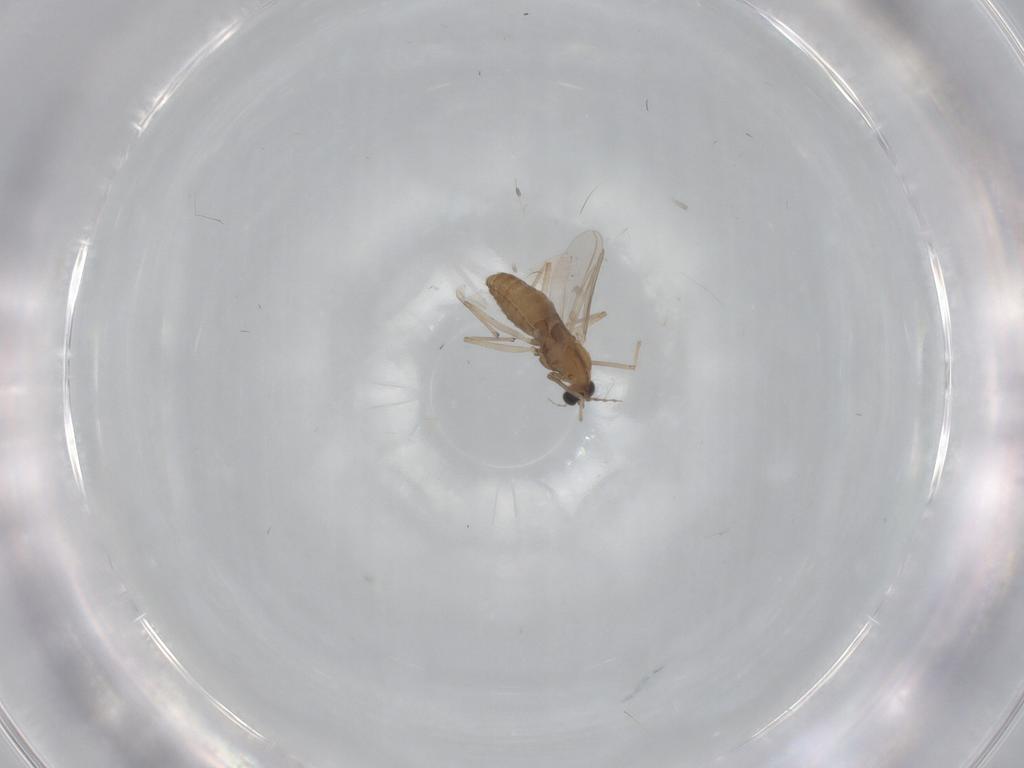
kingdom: Animalia
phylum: Arthropoda
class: Insecta
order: Diptera
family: Chironomidae
